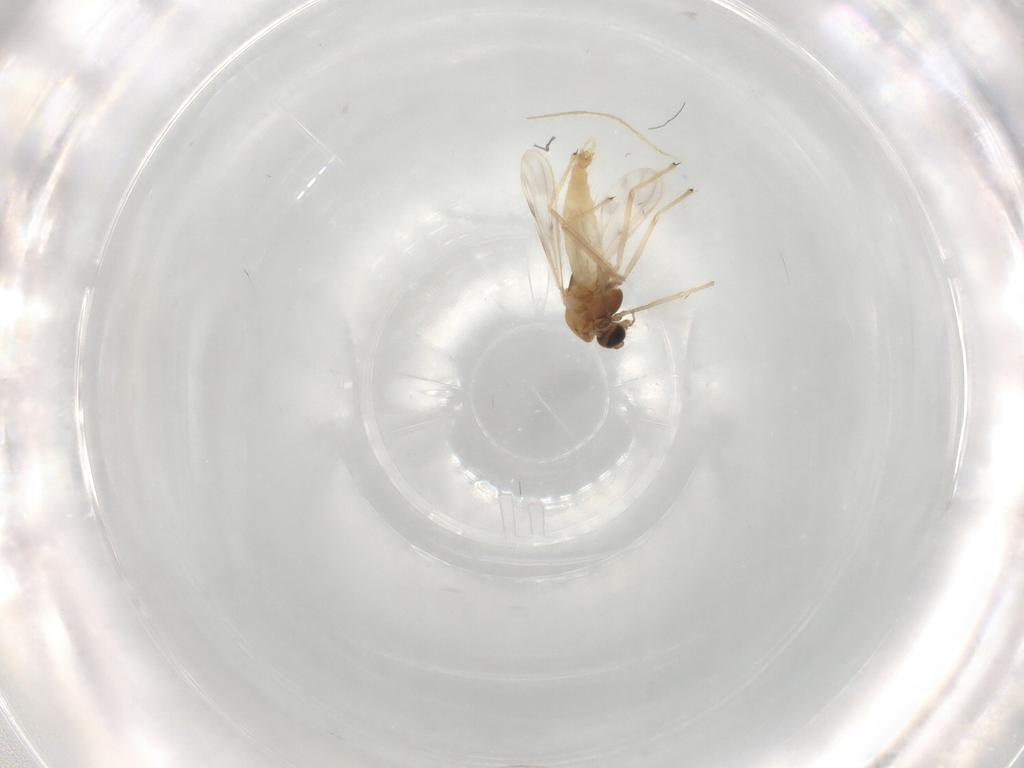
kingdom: Animalia
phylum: Arthropoda
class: Insecta
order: Diptera
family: Chironomidae
